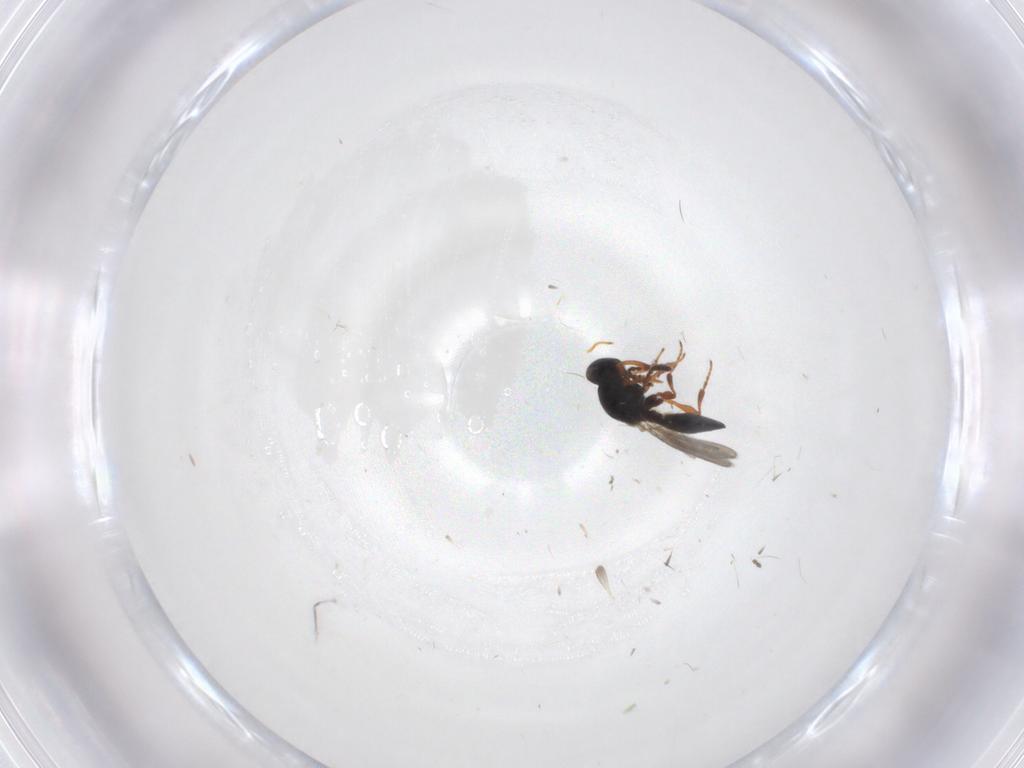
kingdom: Animalia
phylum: Arthropoda
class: Insecta
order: Hymenoptera
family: Platygastridae
